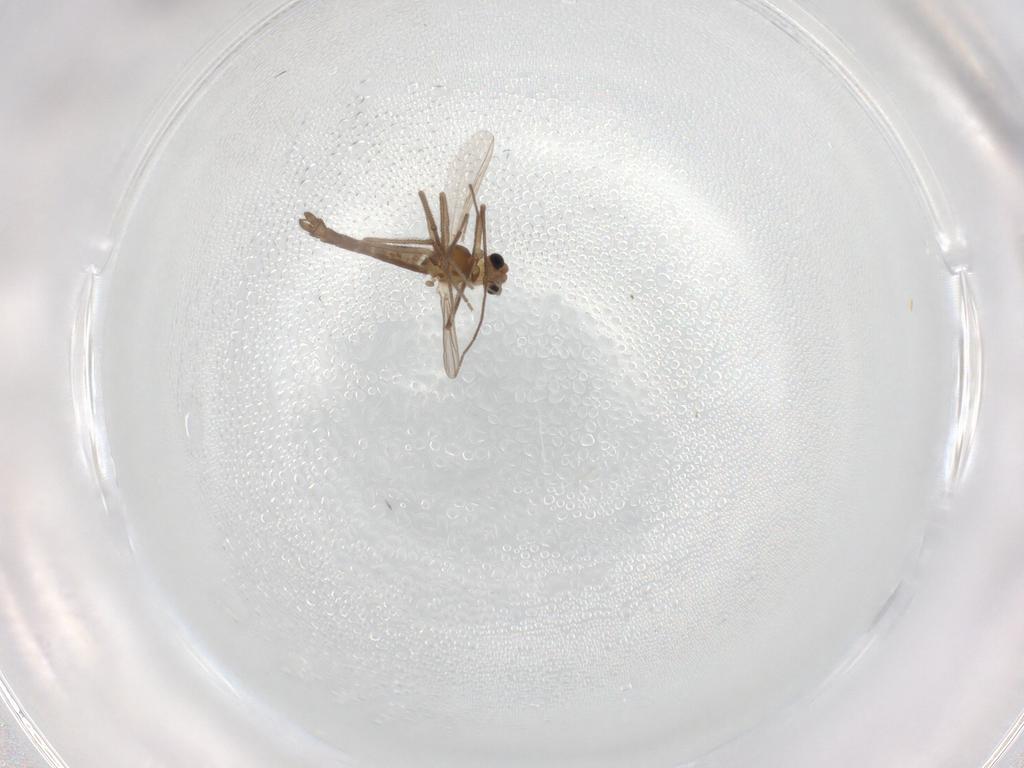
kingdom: Animalia
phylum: Arthropoda
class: Insecta
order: Diptera
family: Chironomidae
